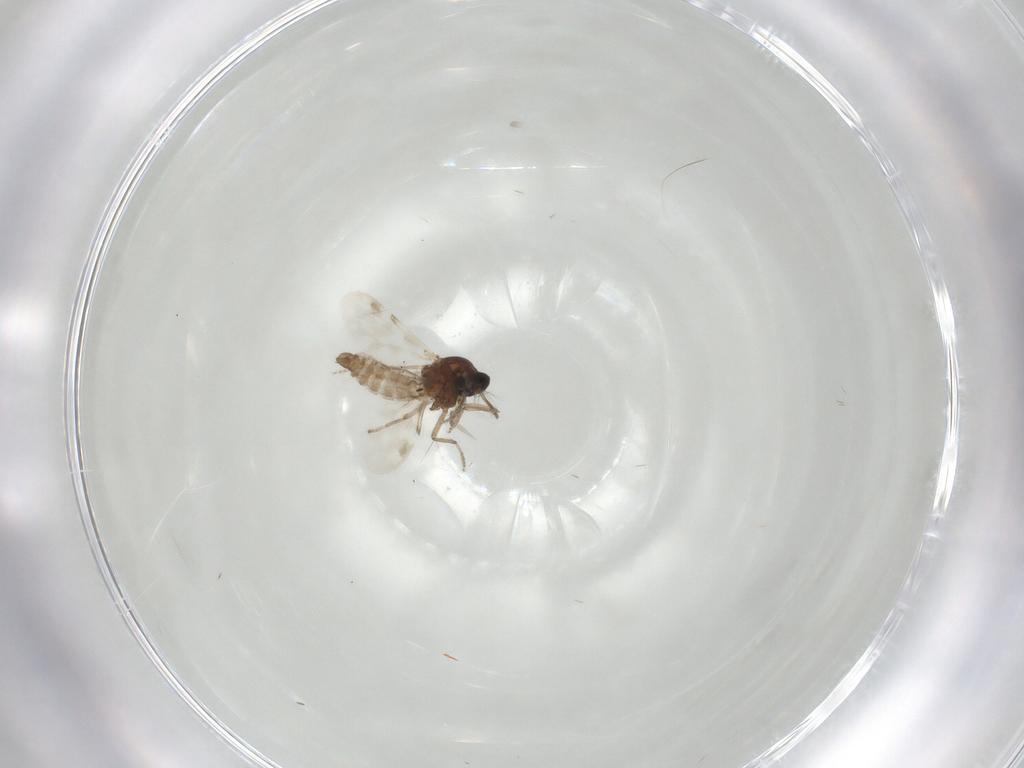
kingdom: Animalia
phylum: Arthropoda
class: Insecta
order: Diptera
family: Ceratopogonidae
